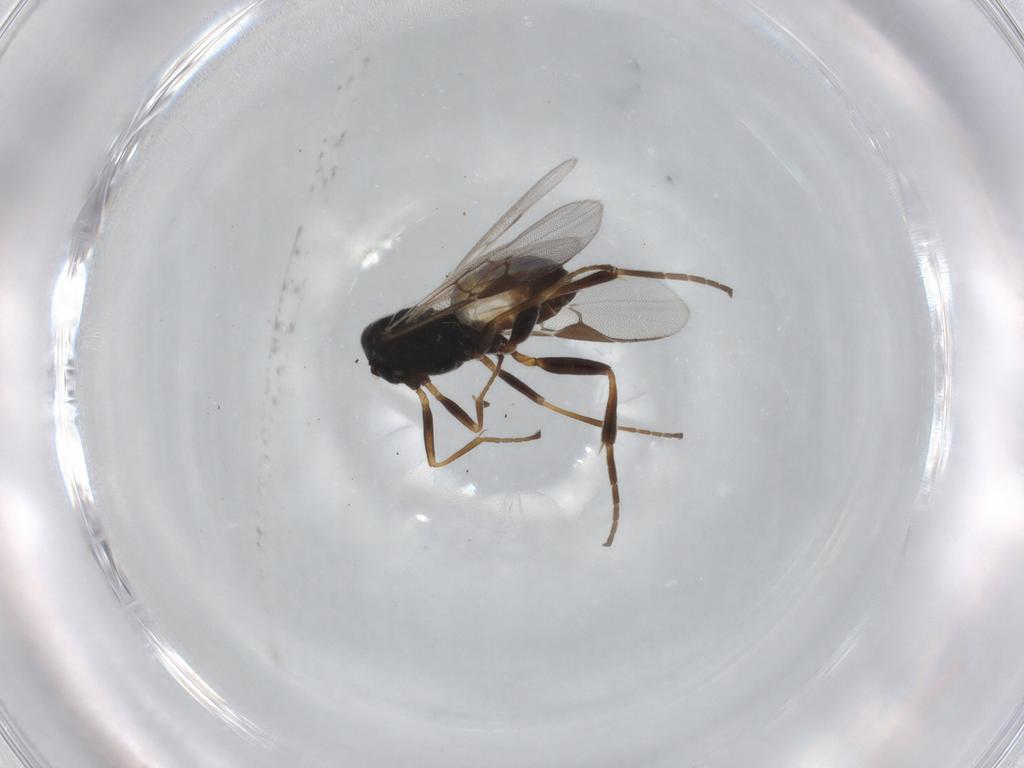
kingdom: Animalia
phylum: Arthropoda
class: Insecta
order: Hymenoptera
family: Braconidae
